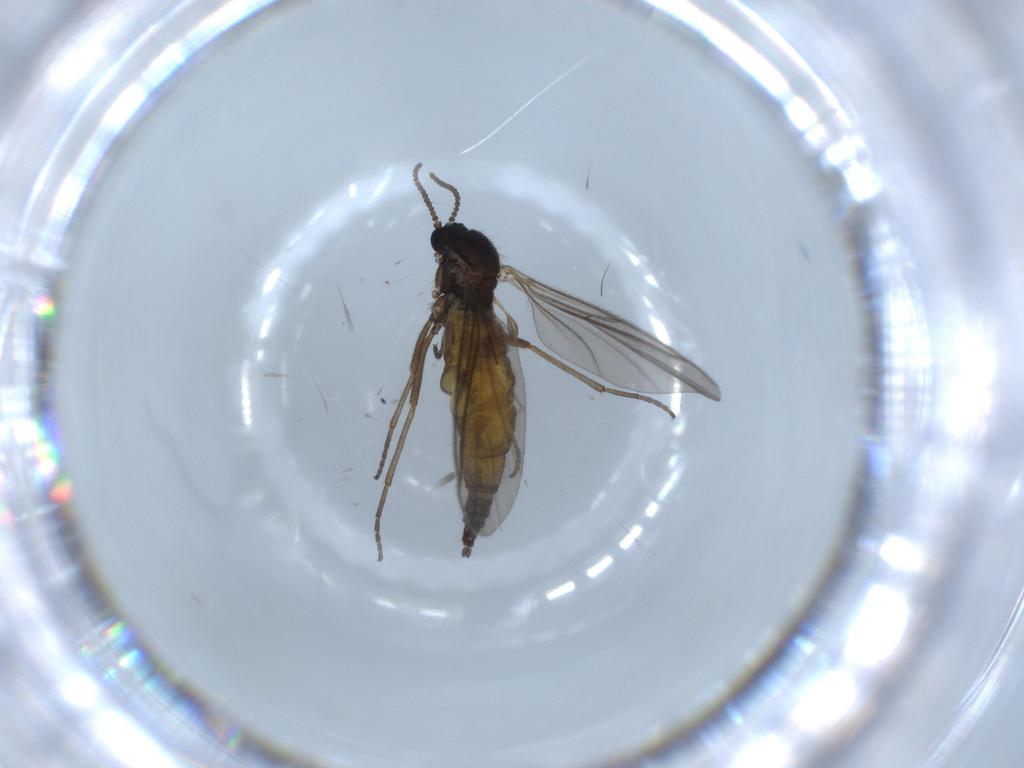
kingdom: Animalia
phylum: Arthropoda
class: Insecta
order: Diptera
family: Sciaridae
